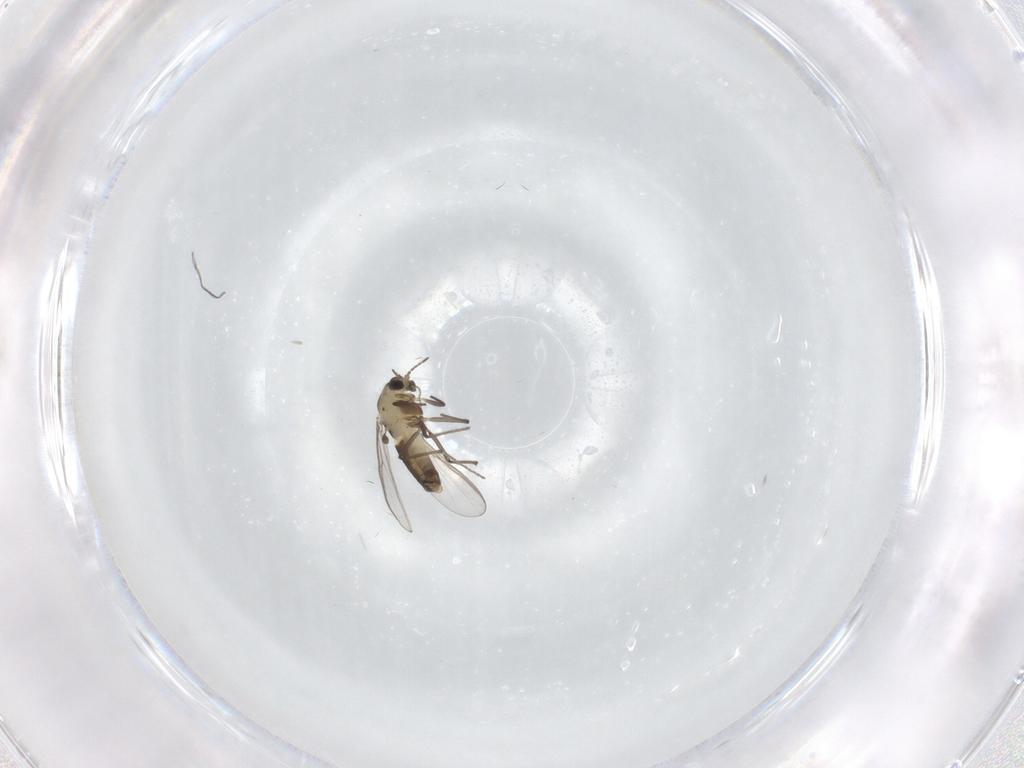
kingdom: Animalia
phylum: Arthropoda
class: Insecta
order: Diptera
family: Chironomidae
